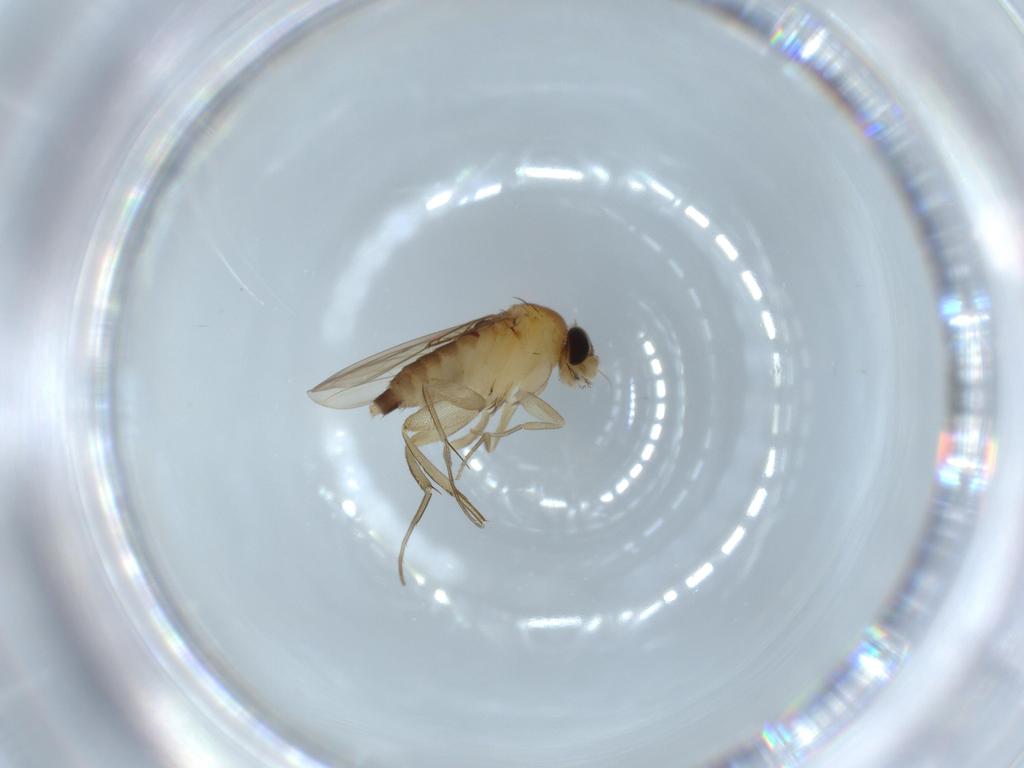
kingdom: Animalia
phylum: Arthropoda
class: Insecta
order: Diptera
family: Phoridae
